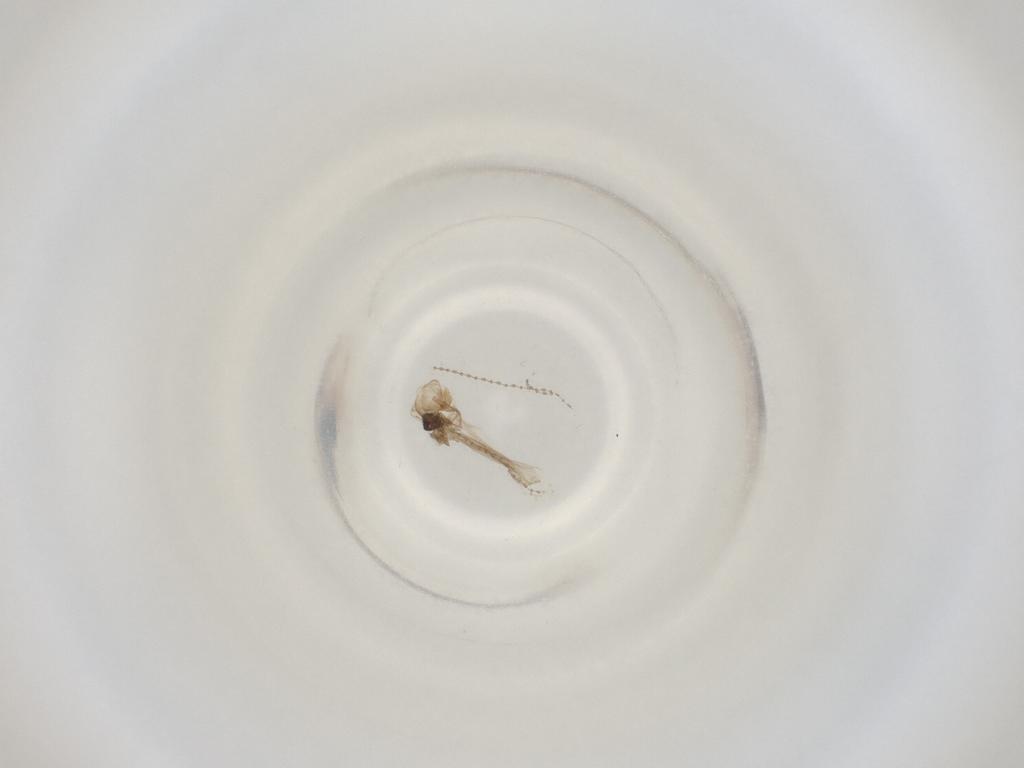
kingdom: Animalia
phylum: Arthropoda
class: Insecta
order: Diptera
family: Cecidomyiidae
